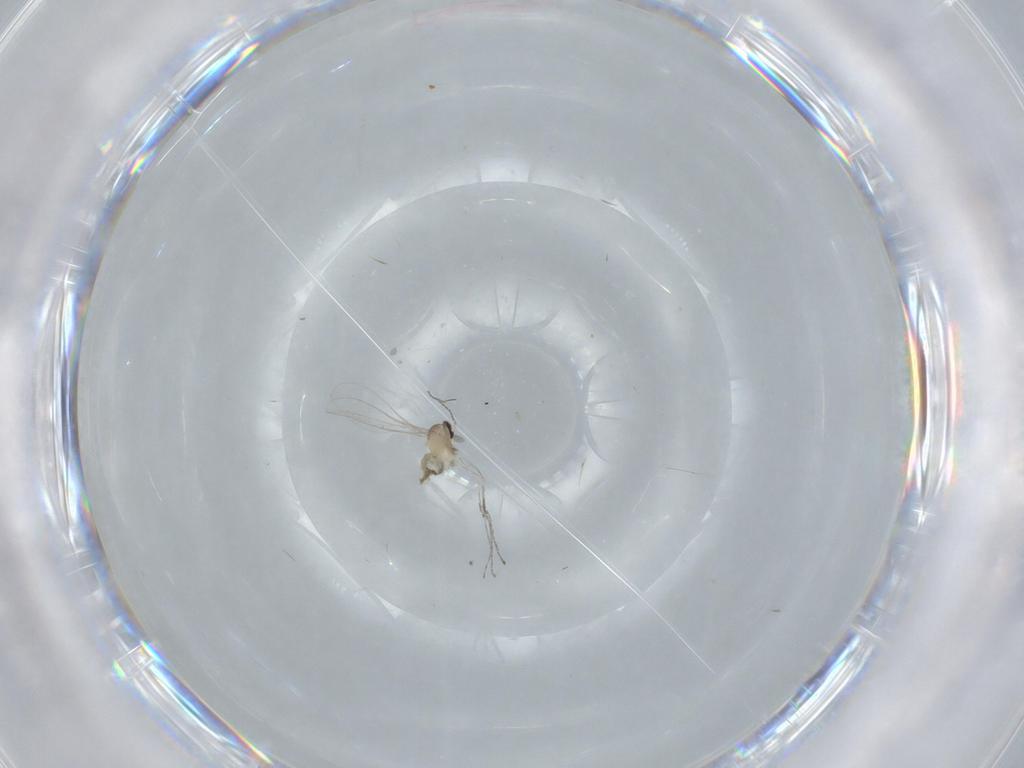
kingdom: Animalia
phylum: Arthropoda
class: Insecta
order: Diptera
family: Cecidomyiidae
